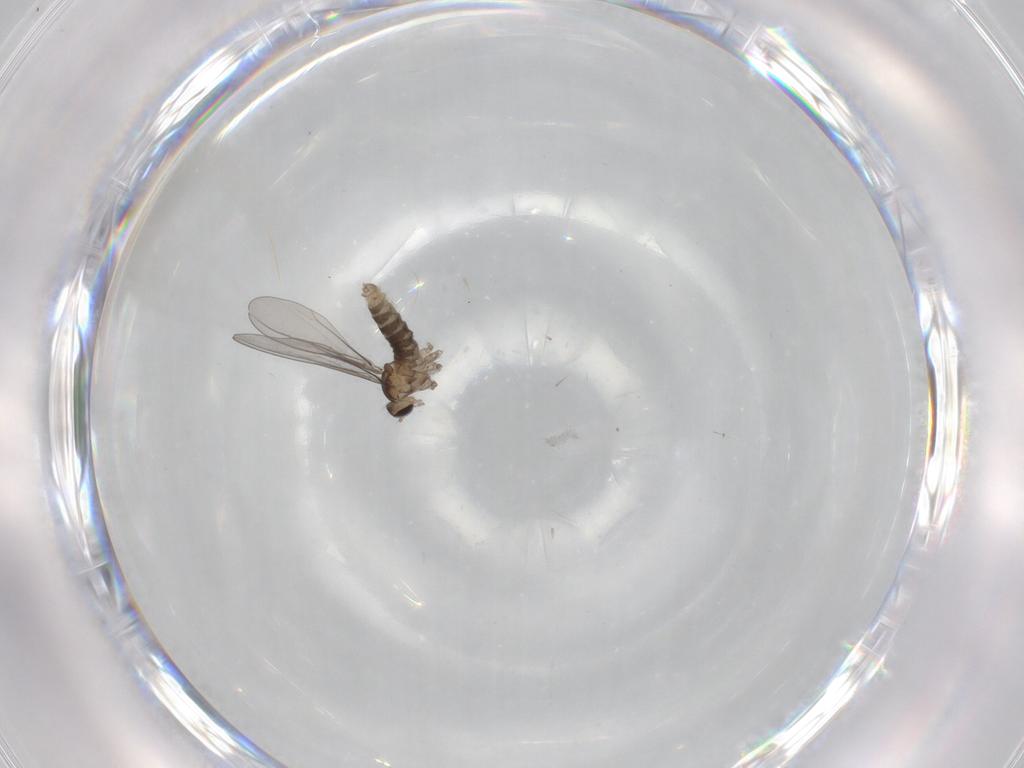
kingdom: Animalia
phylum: Arthropoda
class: Insecta
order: Diptera
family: Cecidomyiidae
